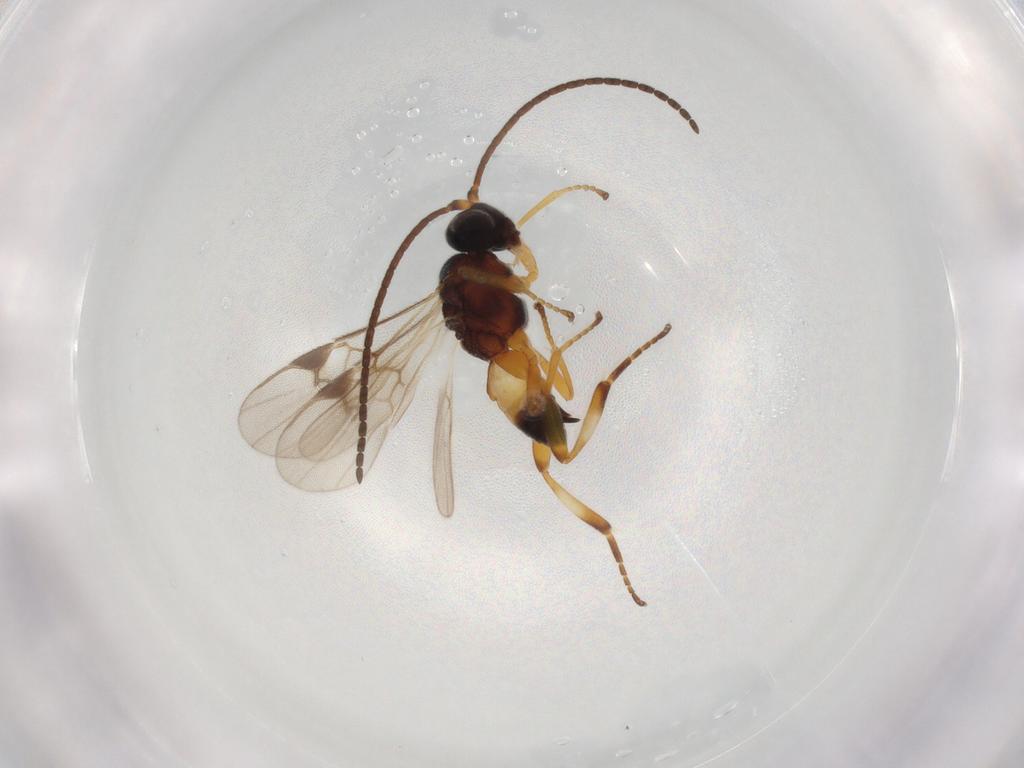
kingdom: Animalia
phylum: Arthropoda
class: Insecta
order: Hymenoptera
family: Braconidae
